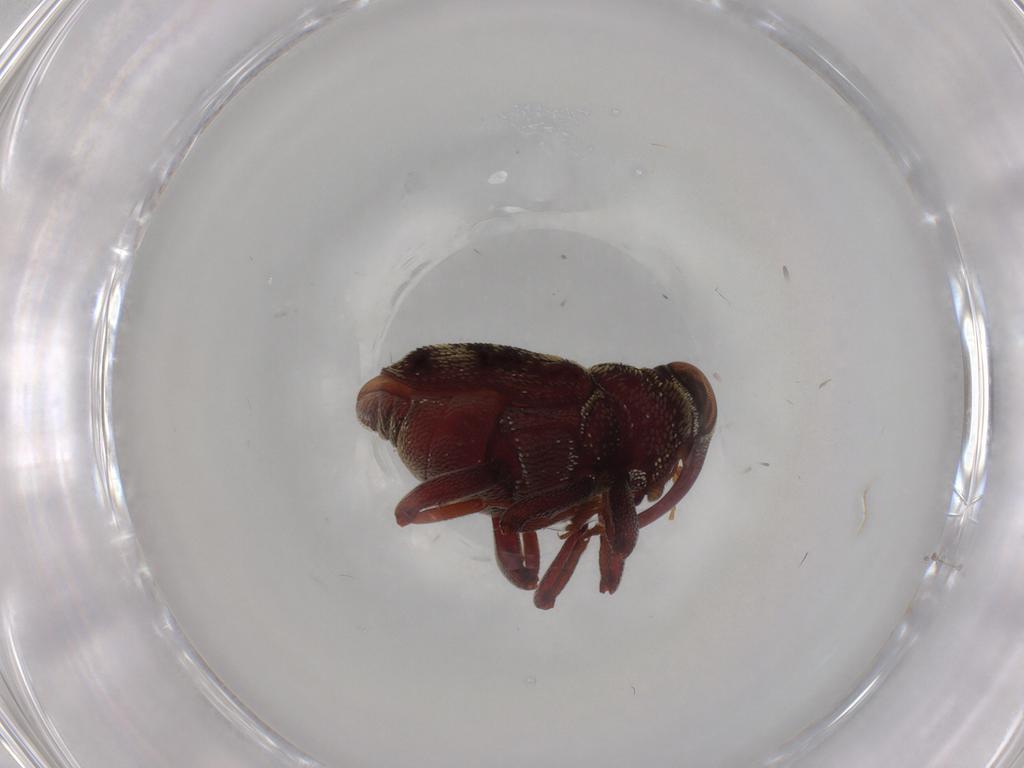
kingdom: Animalia
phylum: Arthropoda
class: Insecta
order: Coleoptera
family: Curculionidae
